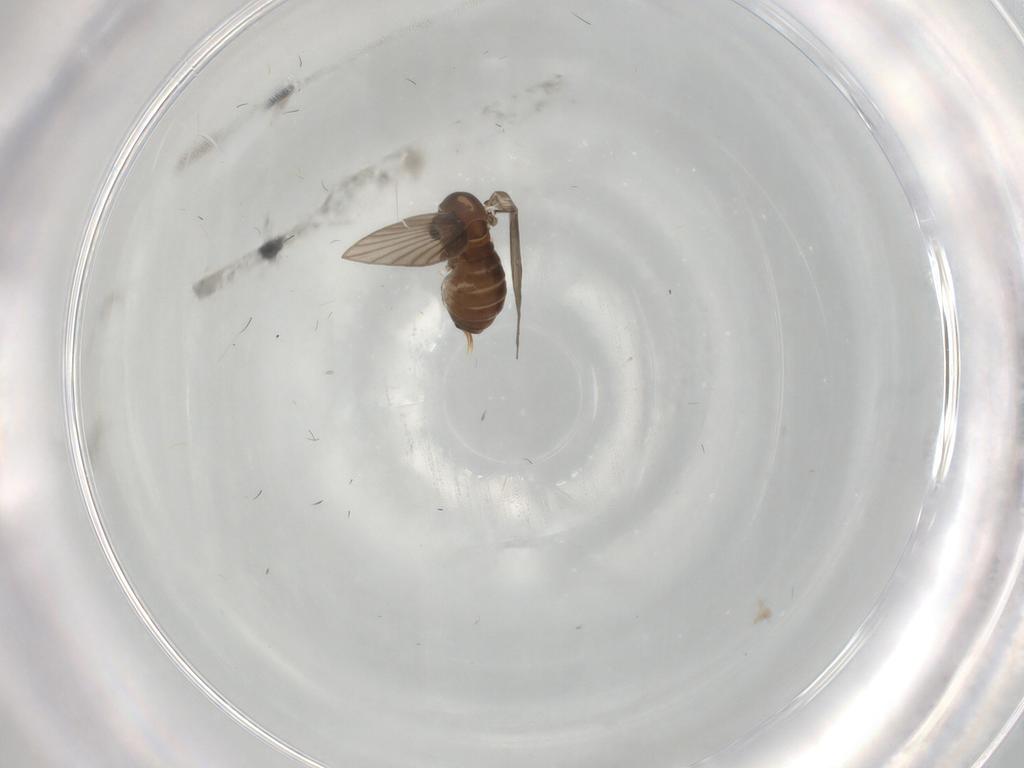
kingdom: Animalia
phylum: Arthropoda
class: Insecta
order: Diptera
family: Psychodidae
